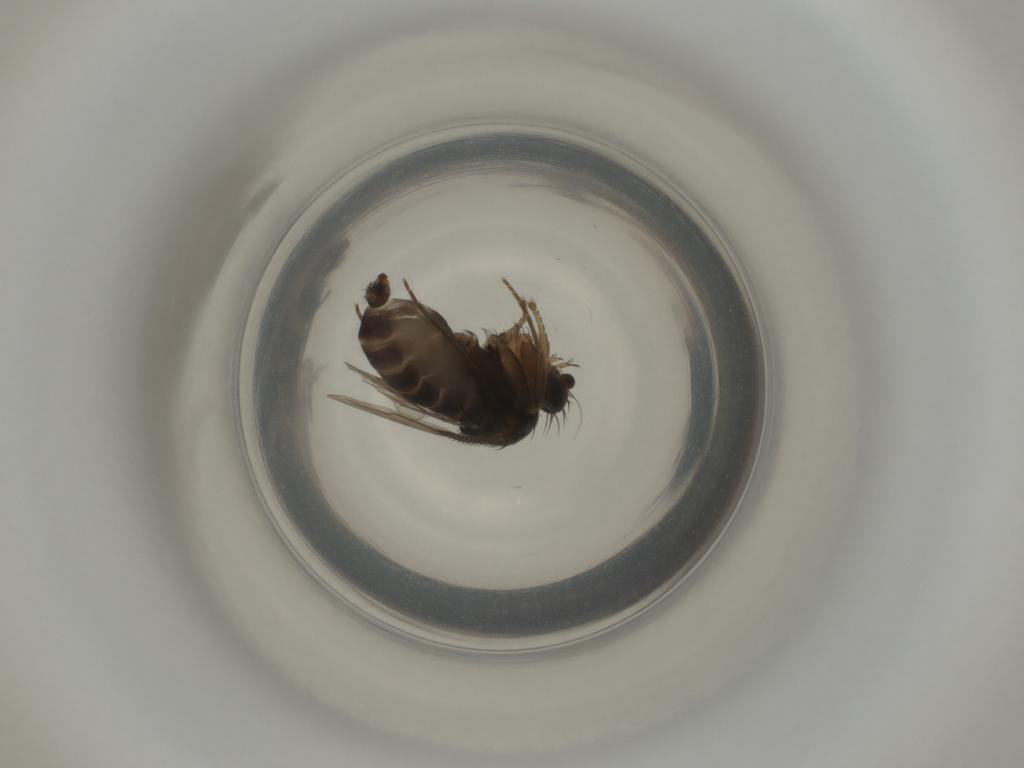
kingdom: Animalia
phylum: Arthropoda
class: Insecta
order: Diptera
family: Phoridae
